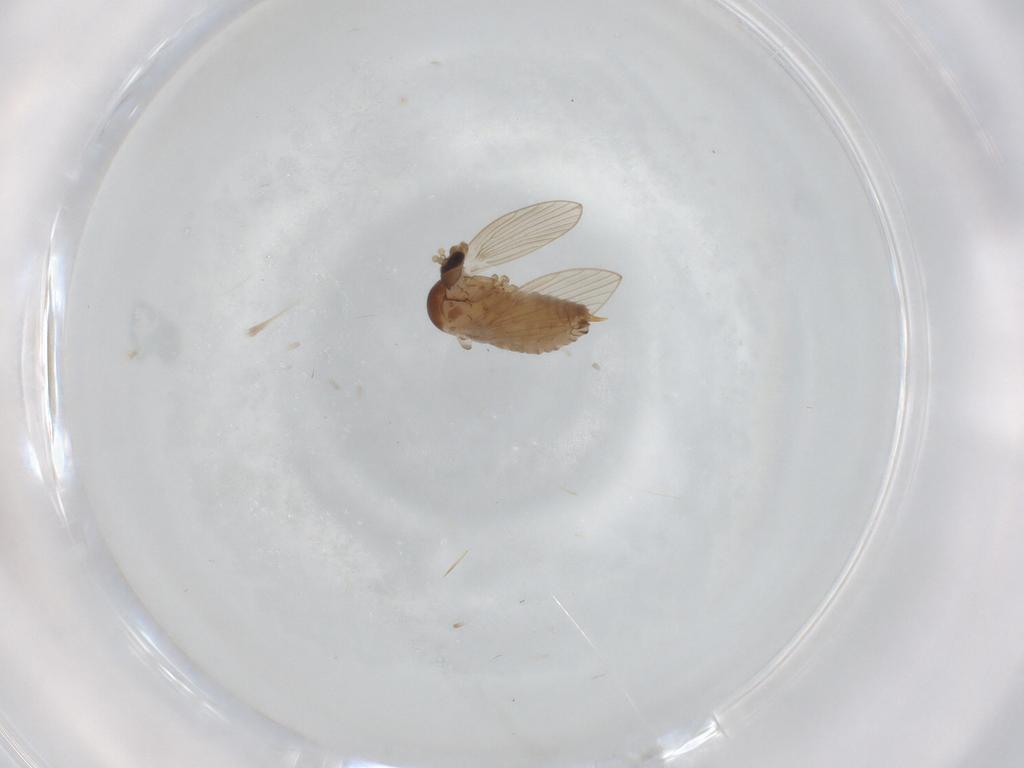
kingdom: Animalia
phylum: Arthropoda
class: Insecta
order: Diptera
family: Psychodidae
